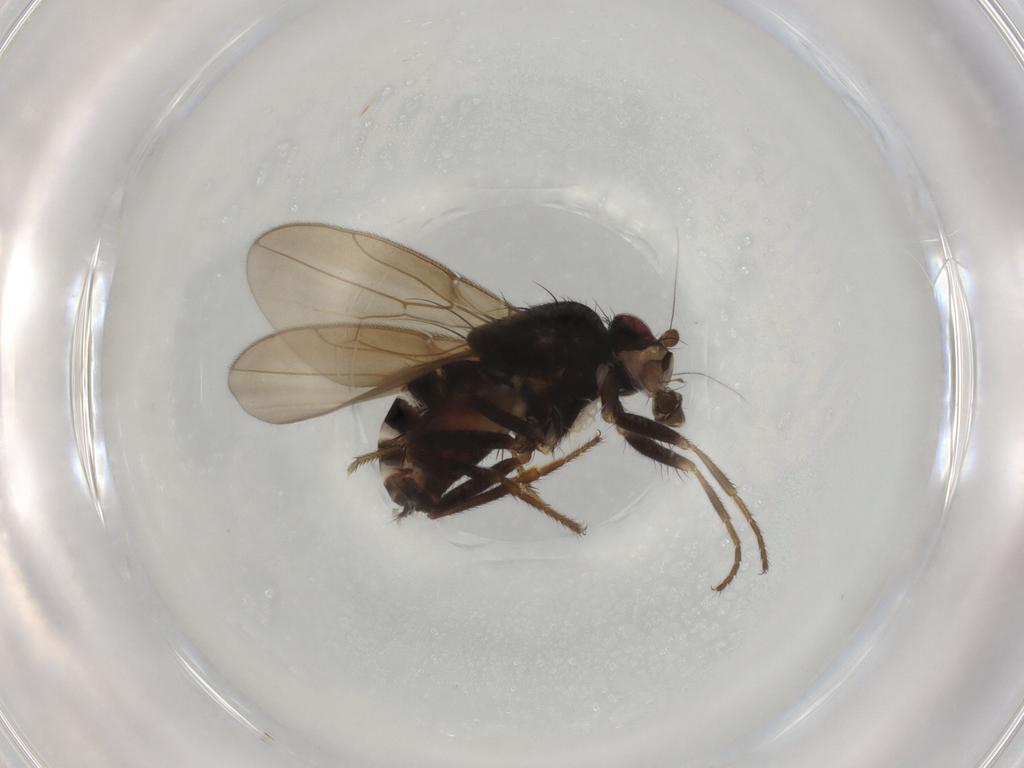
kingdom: Animalia
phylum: Arthropoda
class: Insecta
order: Diptera
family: Sphaeroceridae
